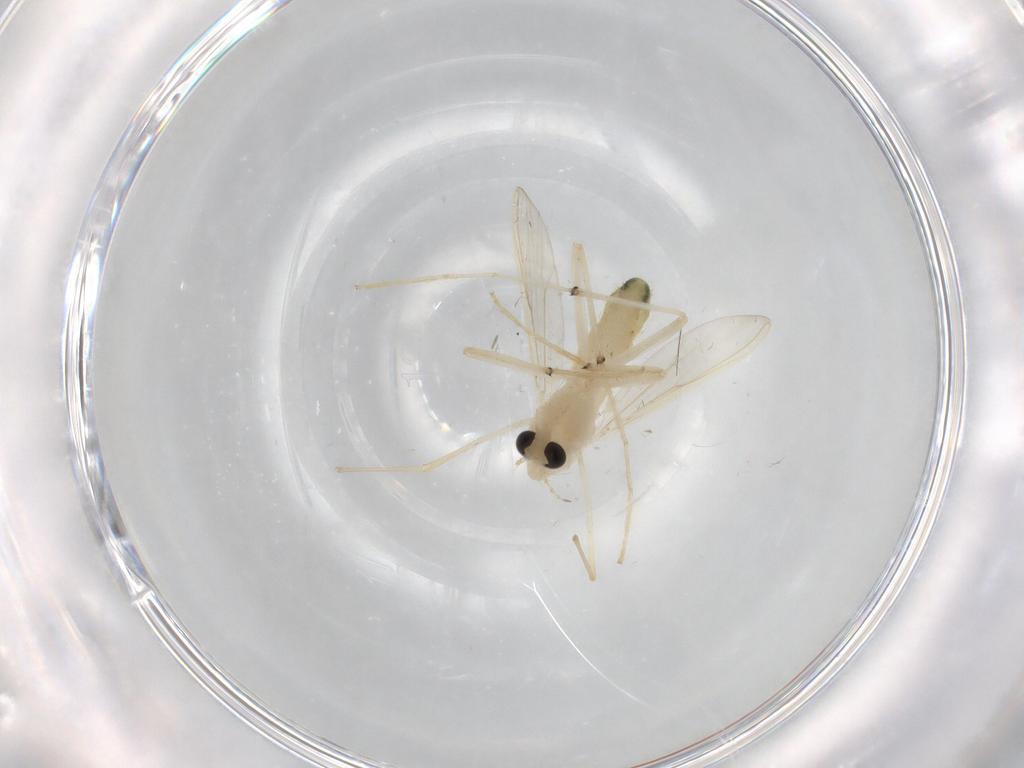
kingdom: Animalia
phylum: Arthropoda
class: Insecta
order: Diptera
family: Chironomidae
